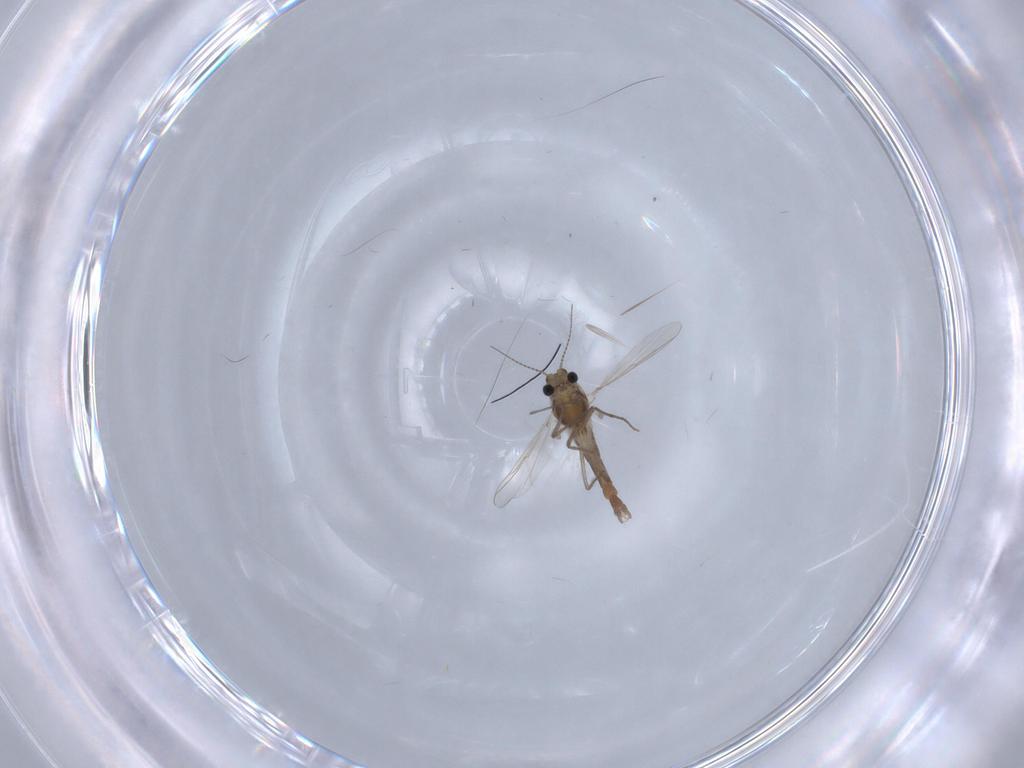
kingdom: Animalia
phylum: Arthropoda
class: Insecta
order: Diptera
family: Chironomidae
